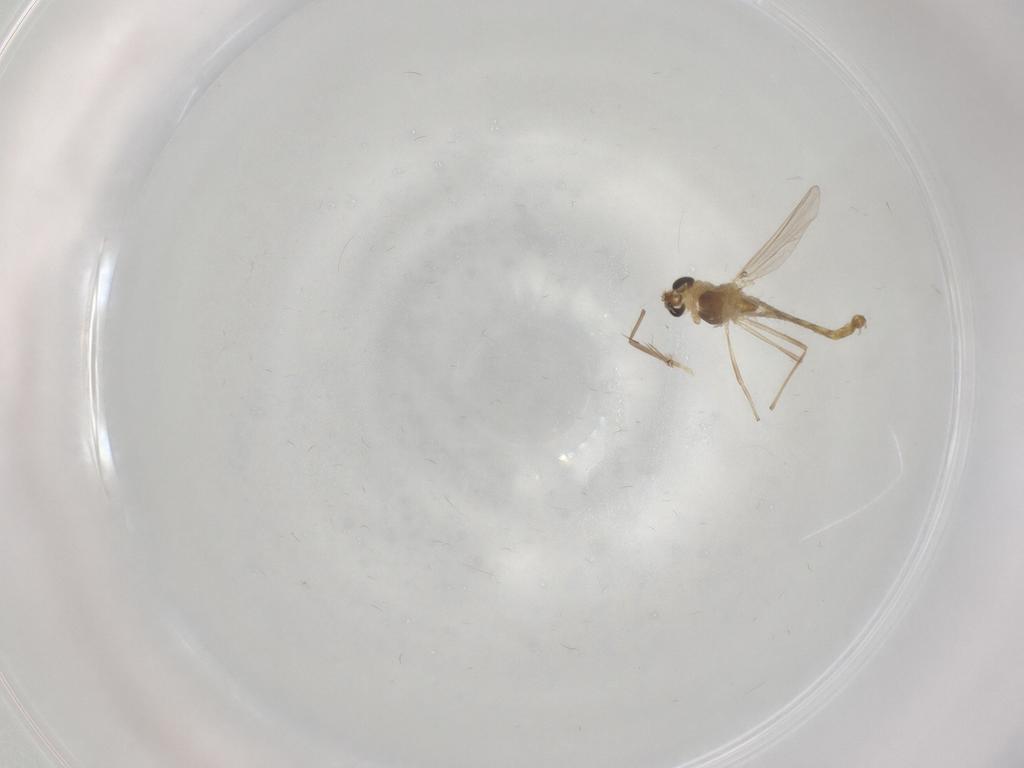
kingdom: Animalia
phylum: Arthropoda
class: Insecta
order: Diptera
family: Chironomidae
